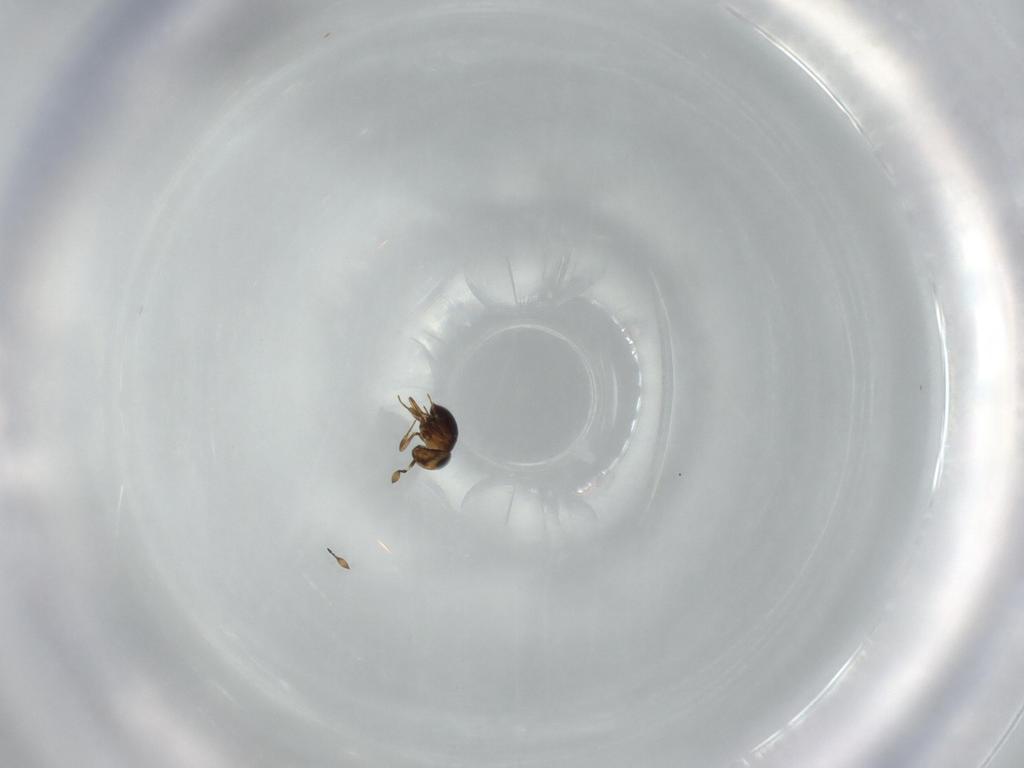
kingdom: Animalia
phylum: Arthropoda
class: Insecta
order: Hymenoptera
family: Scelionidae
